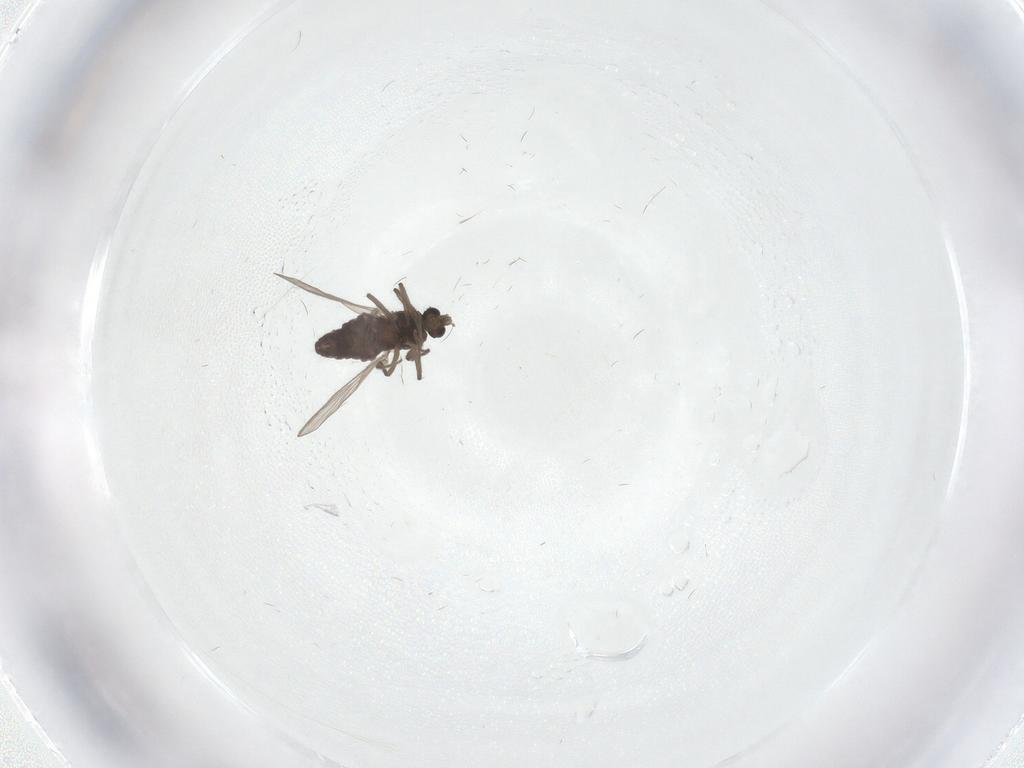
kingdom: Animalia
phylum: Arthropoda
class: Insecta
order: Diptera
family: Chironomidae
